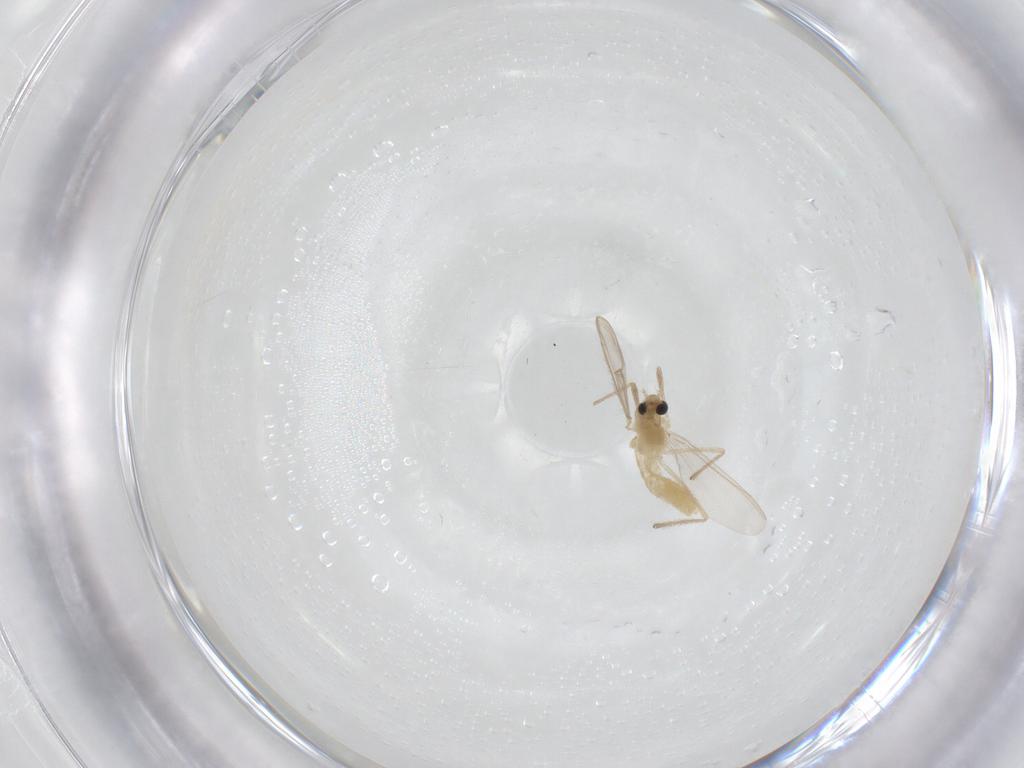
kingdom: Animalia
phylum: Arthropoda
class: Insecta
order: Diptera
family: Chironomidae
